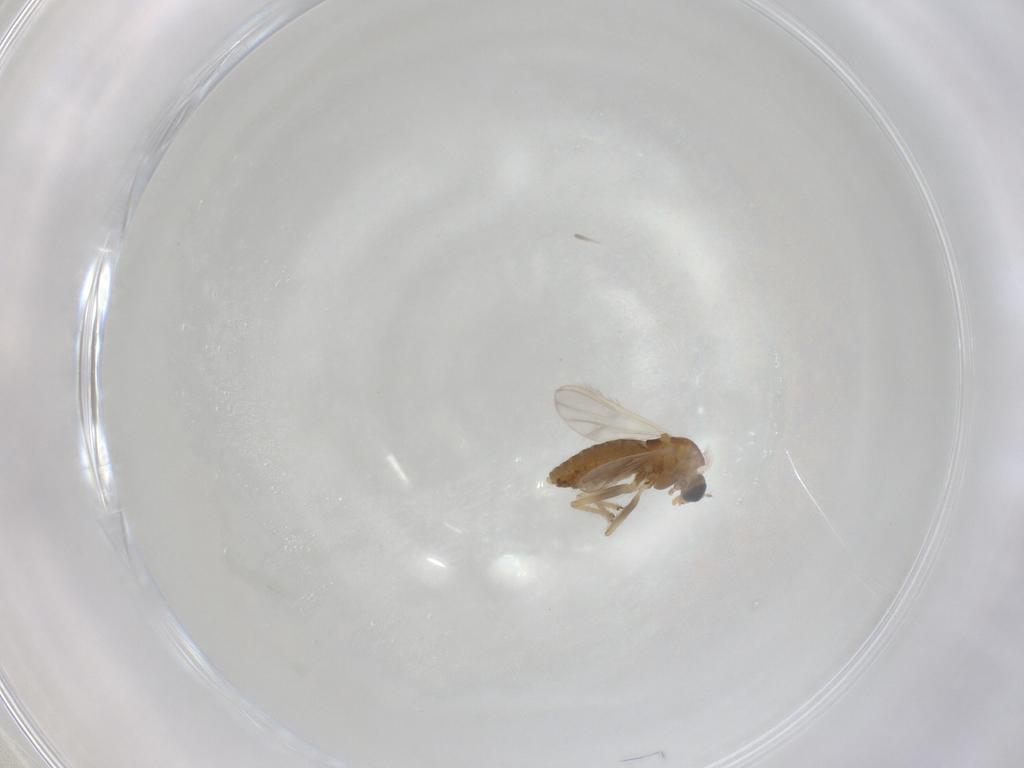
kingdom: Animalia
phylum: Arthropoda
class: Insecta
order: Diptera
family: Chironomidae
